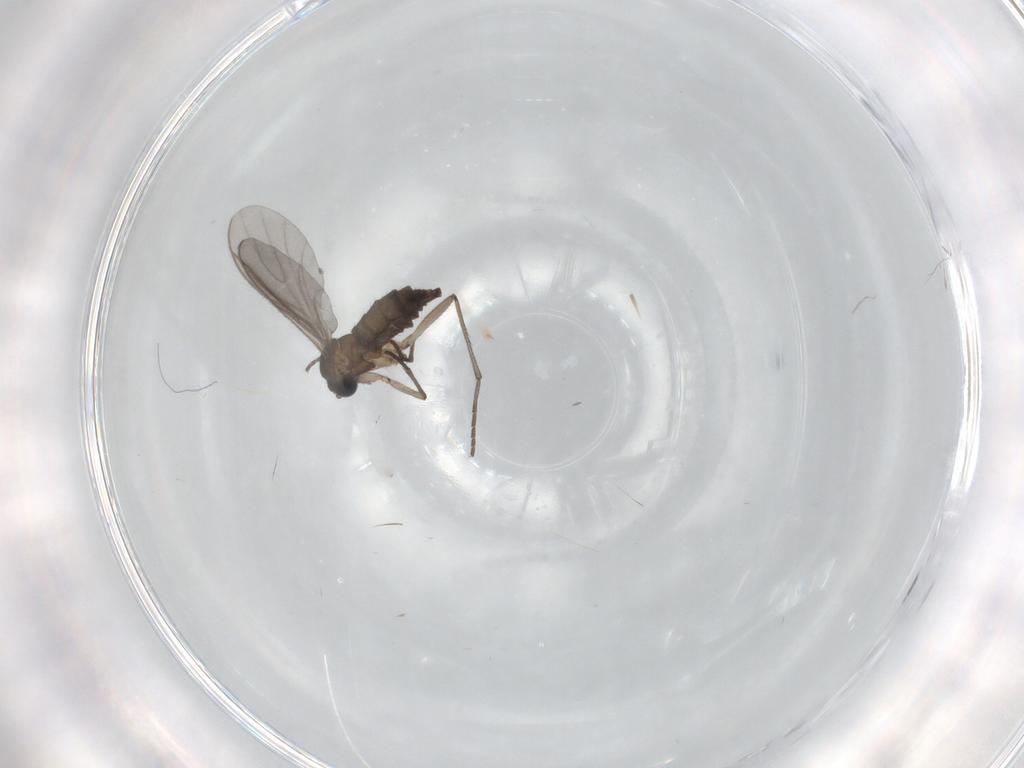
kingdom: Animalia
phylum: Arthropoda
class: Insecta
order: Diptera
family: Sciaridae
